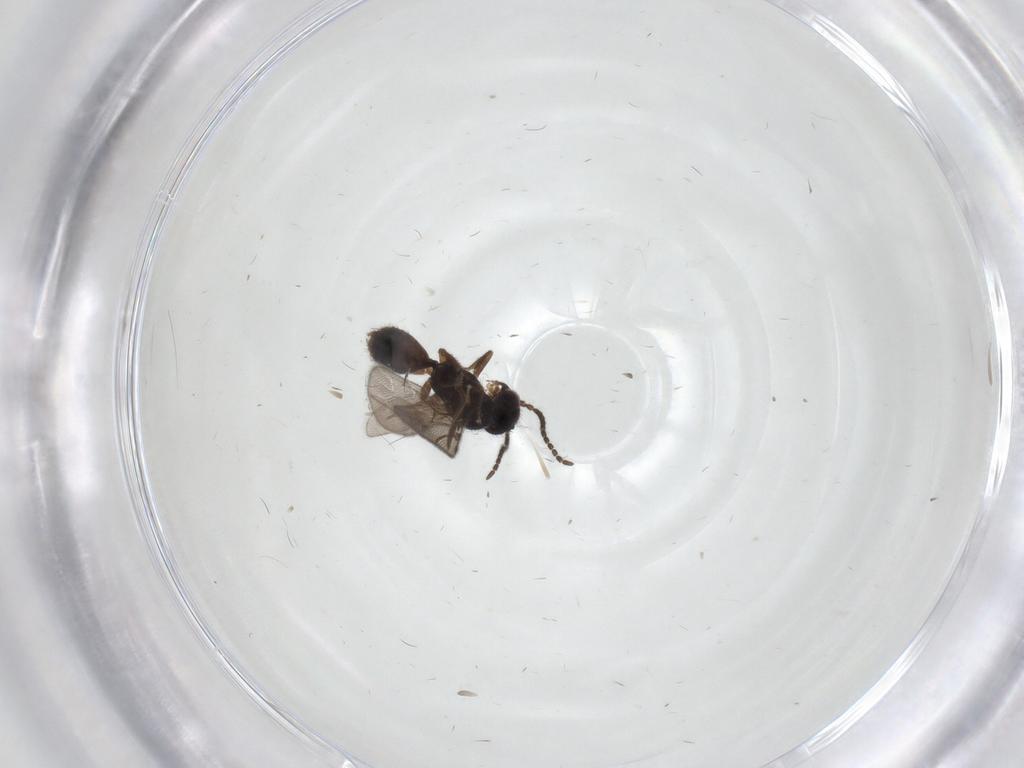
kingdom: Animalia
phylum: Arthropoda
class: Insecta
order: Hymenoptera
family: Bethylidae
